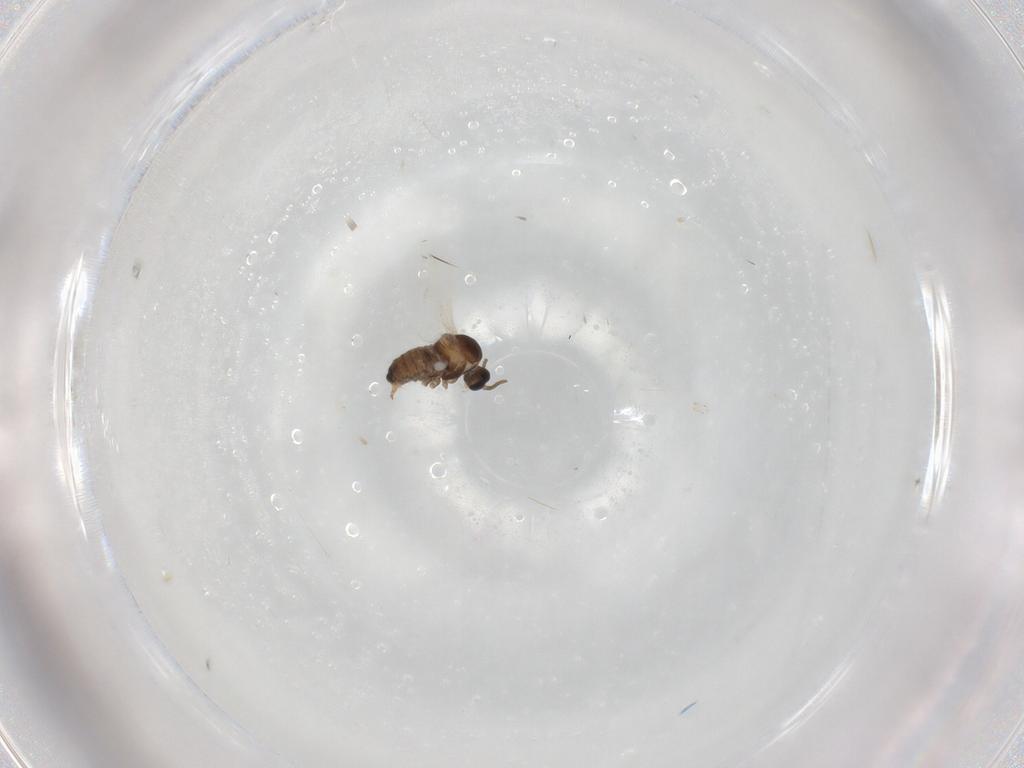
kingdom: Animalia
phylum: Arthropoda
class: Insecta
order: Diptera
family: Cecidomyiidae
